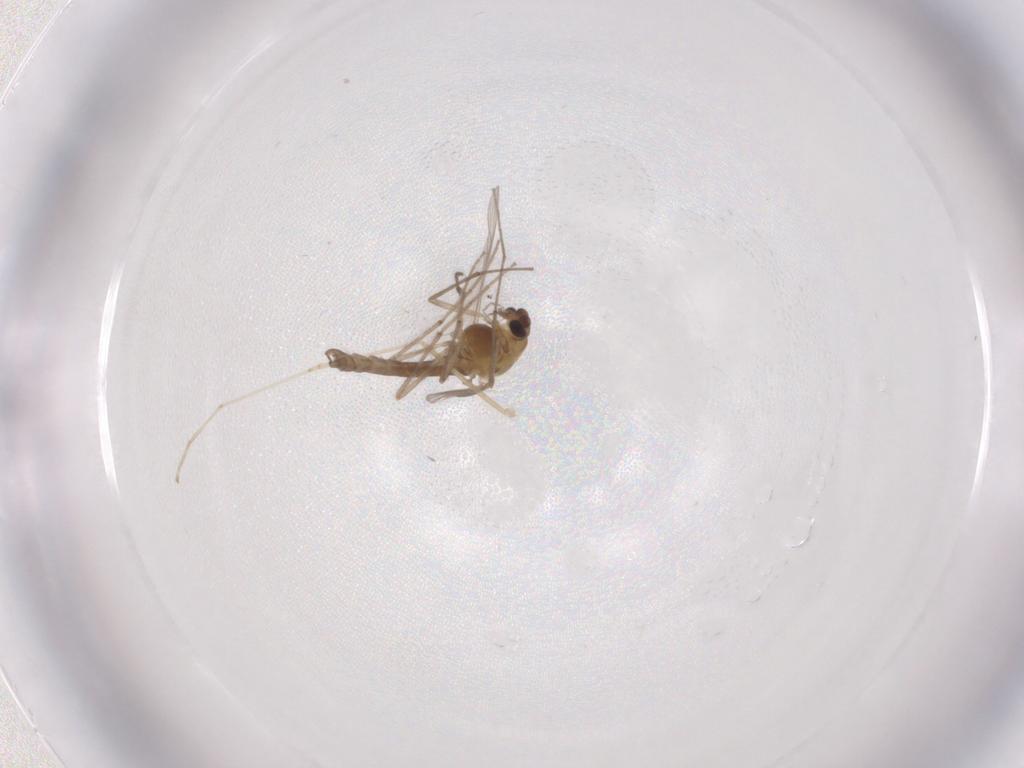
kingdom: Animalia
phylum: Arthropoda
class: Insecta
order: Diptera
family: Chironomidae
